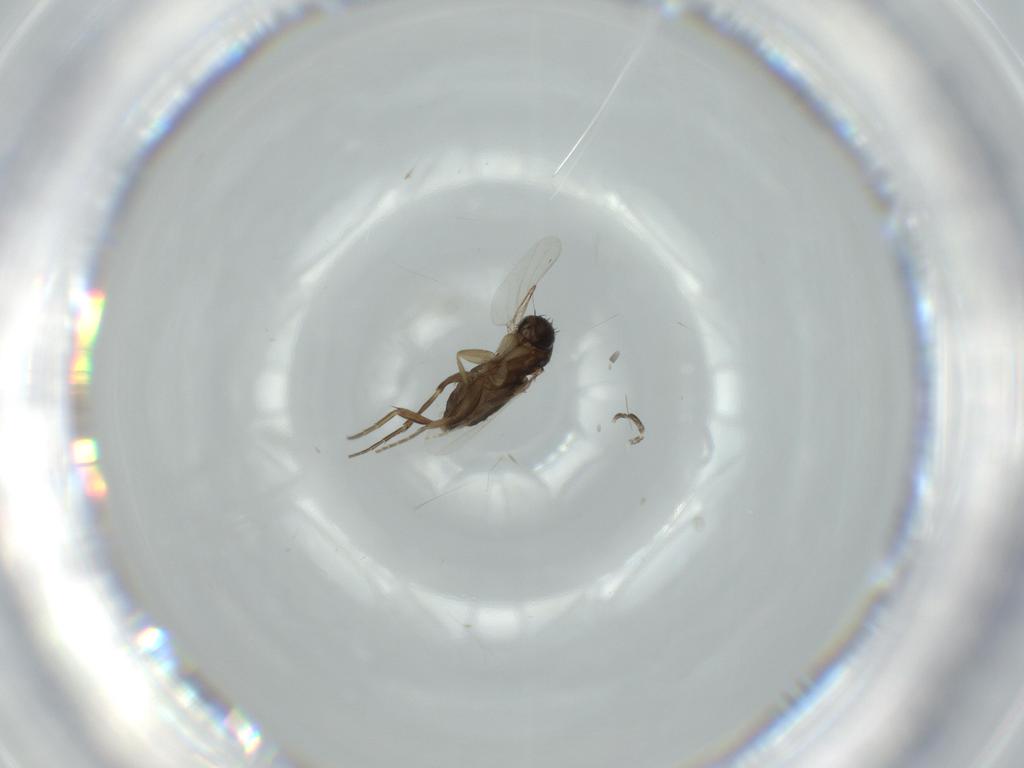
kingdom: Animalia
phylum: Arthropoda
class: Insecta
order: Diptera
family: Phoridae
